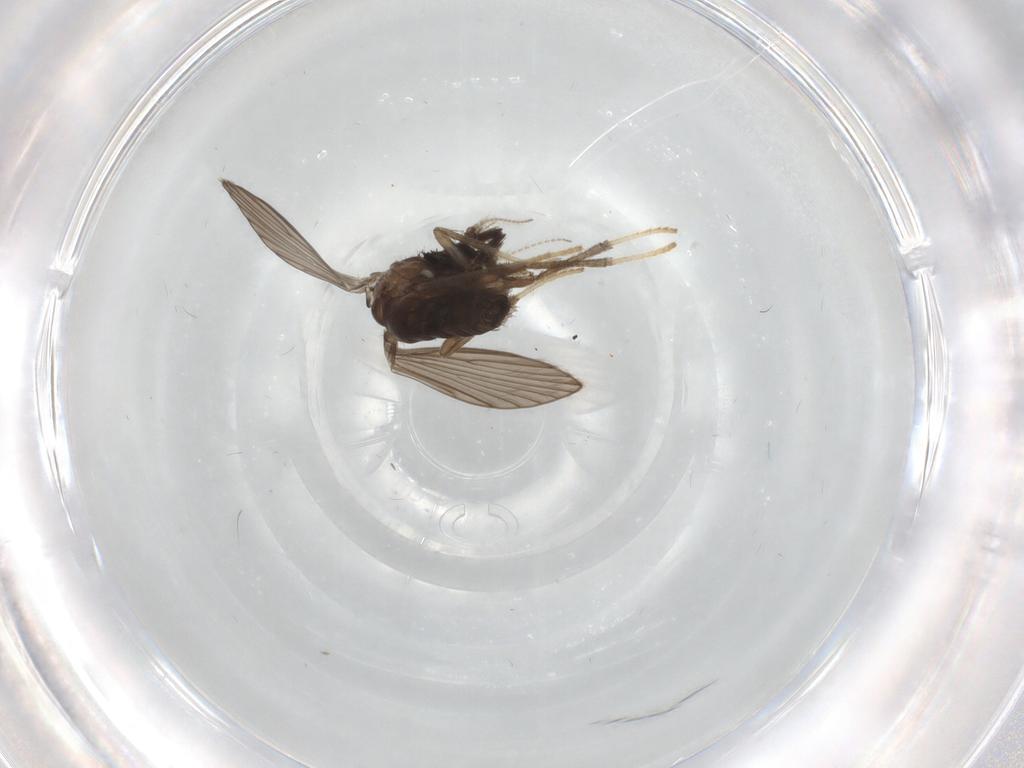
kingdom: Animalia
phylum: Arthropoda
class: Insecta
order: Diptera
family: Psychodidae
